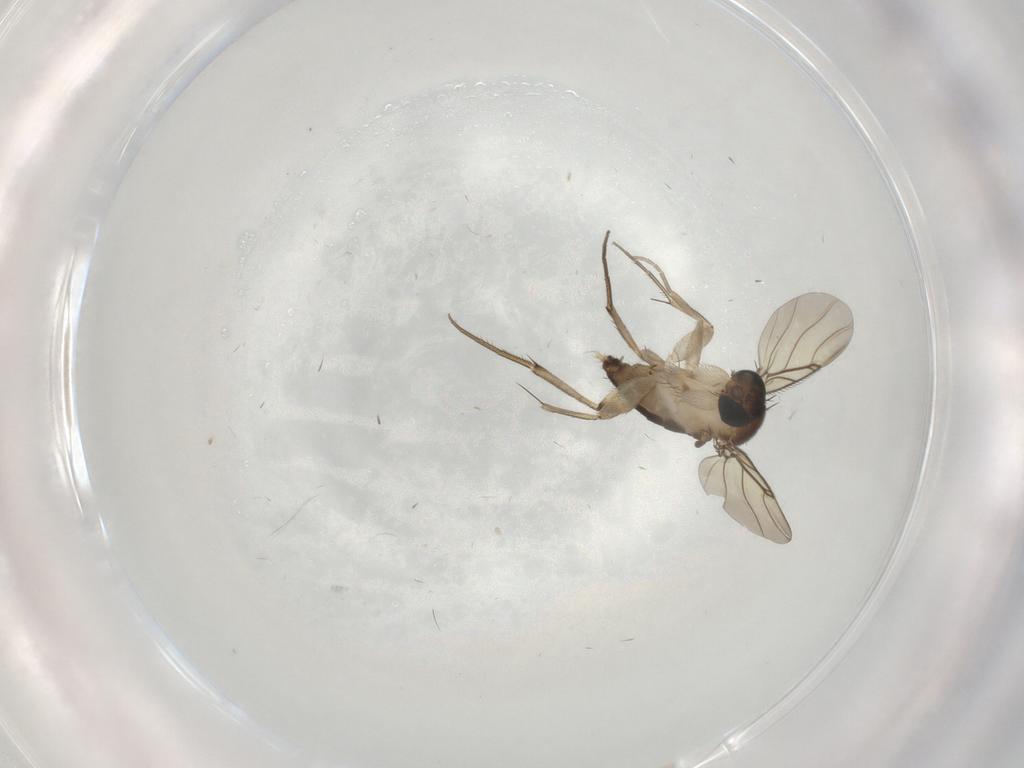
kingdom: Animalia
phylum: Arthropoda
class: Insecta
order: Diptera
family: Phoridae
